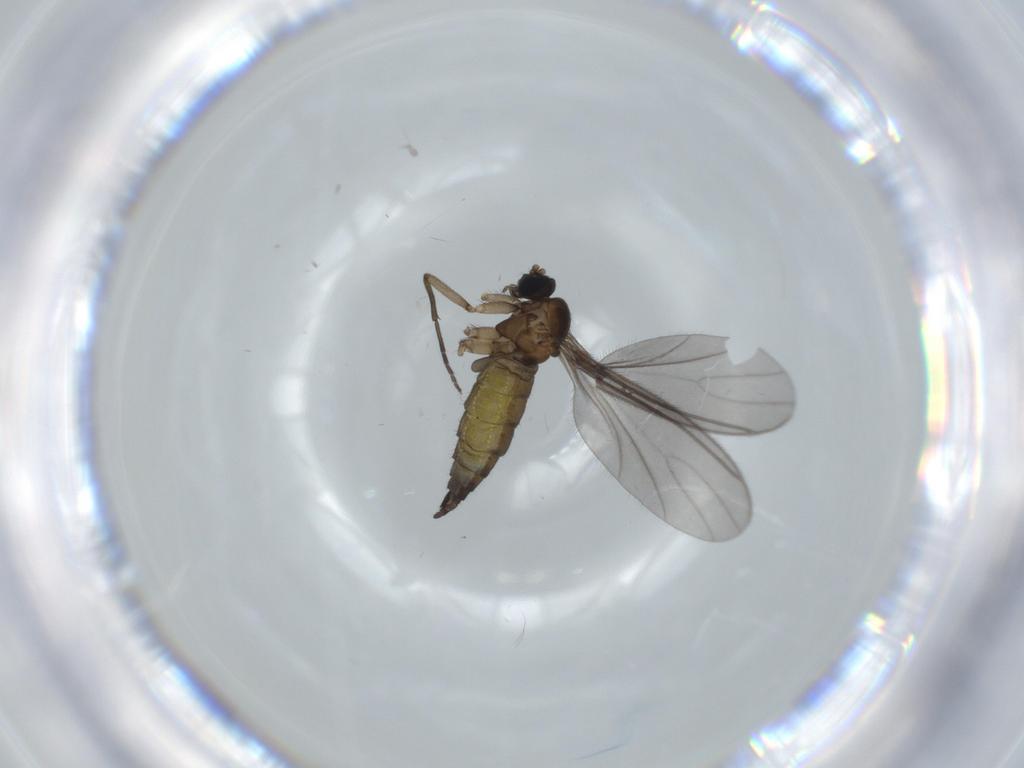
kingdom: Animalia
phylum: Arthropoda
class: Insecta
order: Diptera
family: Sciaridae
